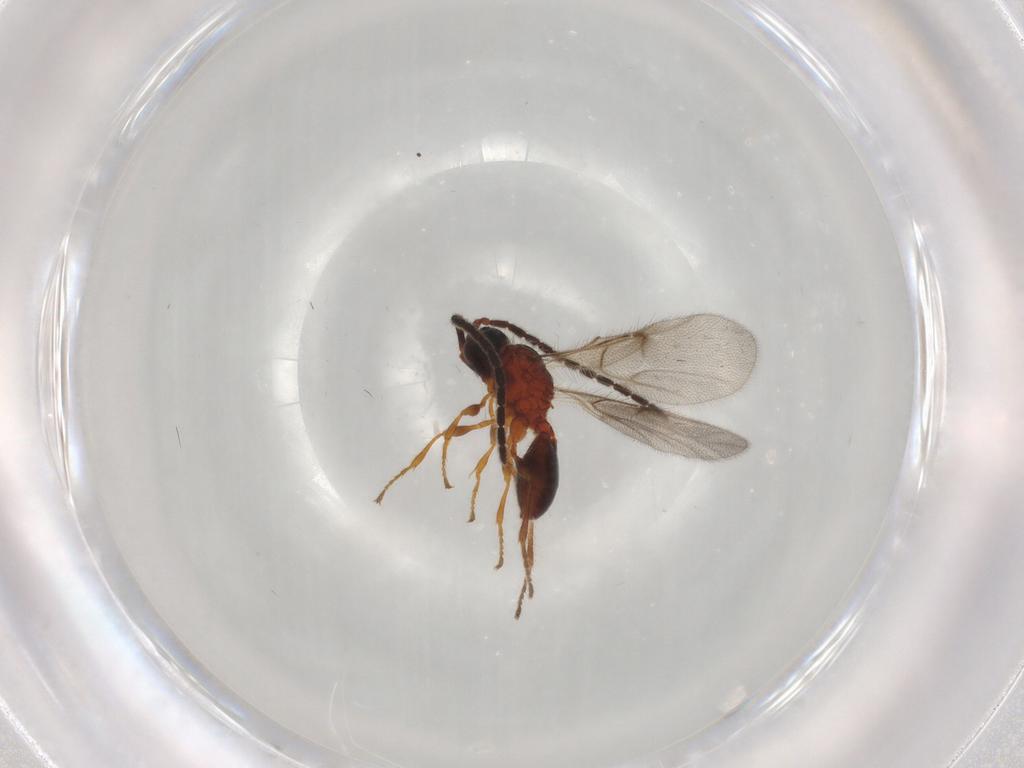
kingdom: Animalia
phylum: Arthropoda
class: Insecta
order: Hymenoptera
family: Diapriidae
